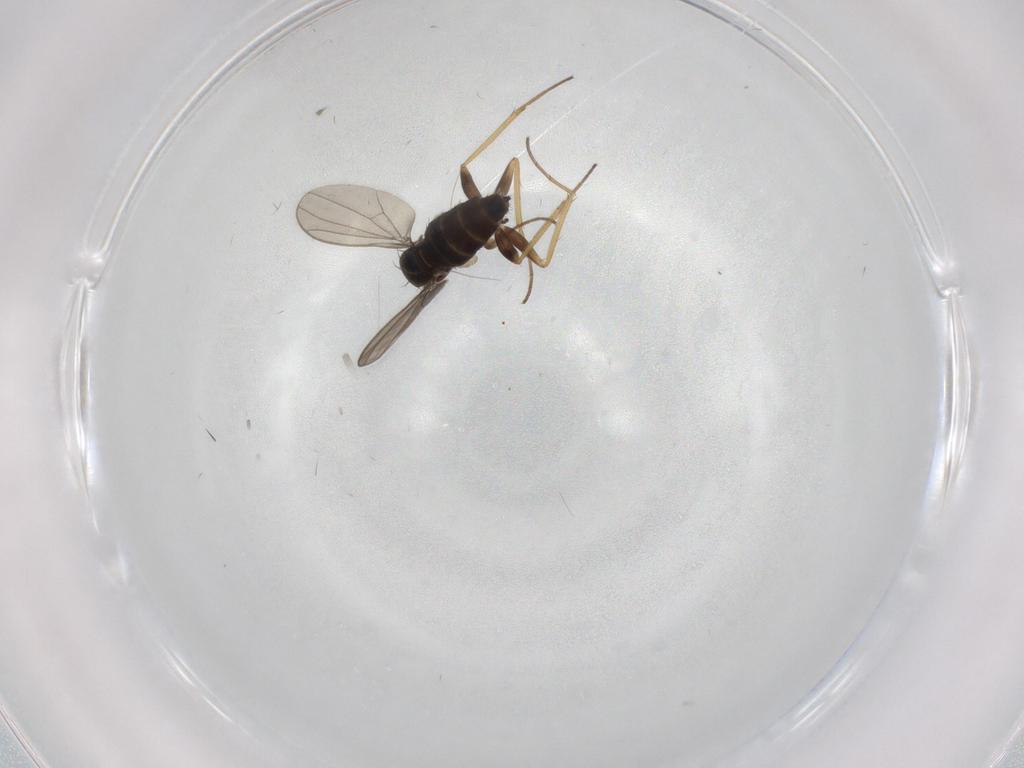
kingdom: Animalia
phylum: Arthropoda
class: Insecta
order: Diptera
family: Dolichopodidae
